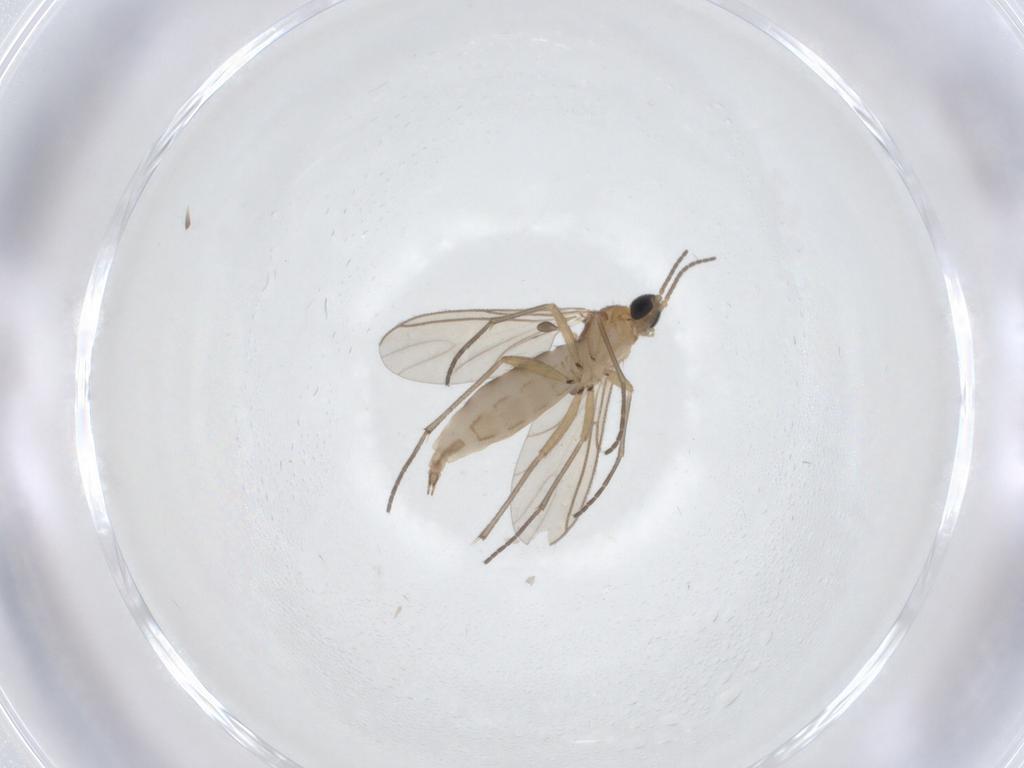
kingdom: Animalia
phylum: Arthropoda
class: Insecta
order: Diptera
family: Sciaridae
